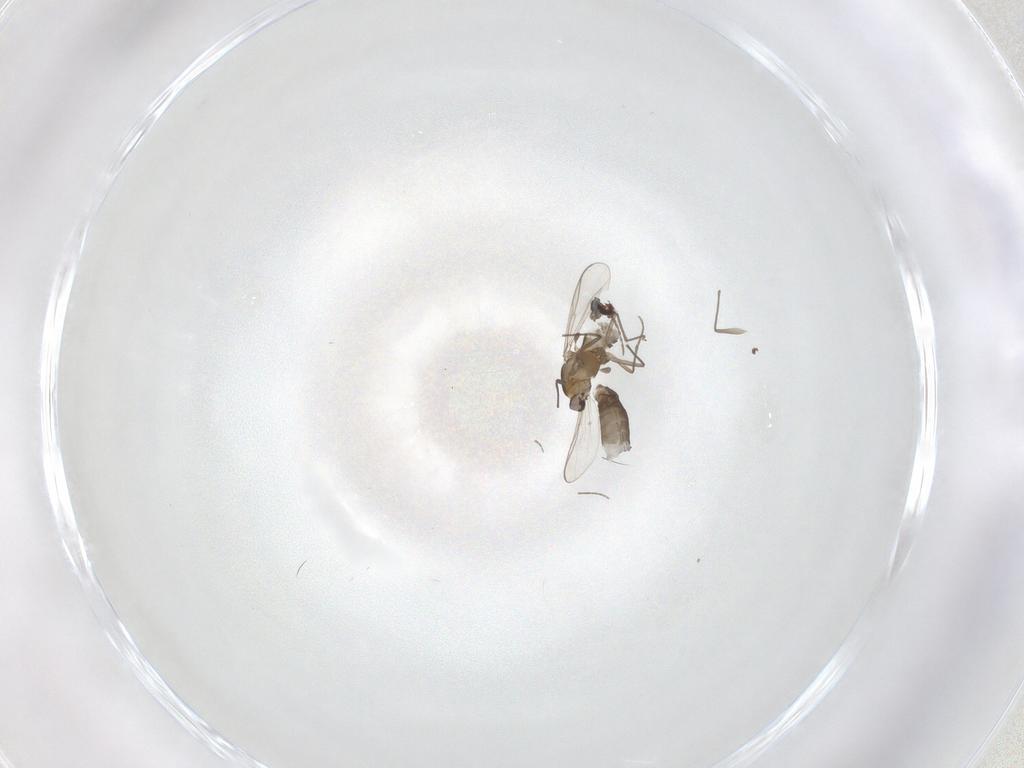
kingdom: Animalia
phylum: Arthropoda
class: Insecta
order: Diptera
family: Chironomidae
